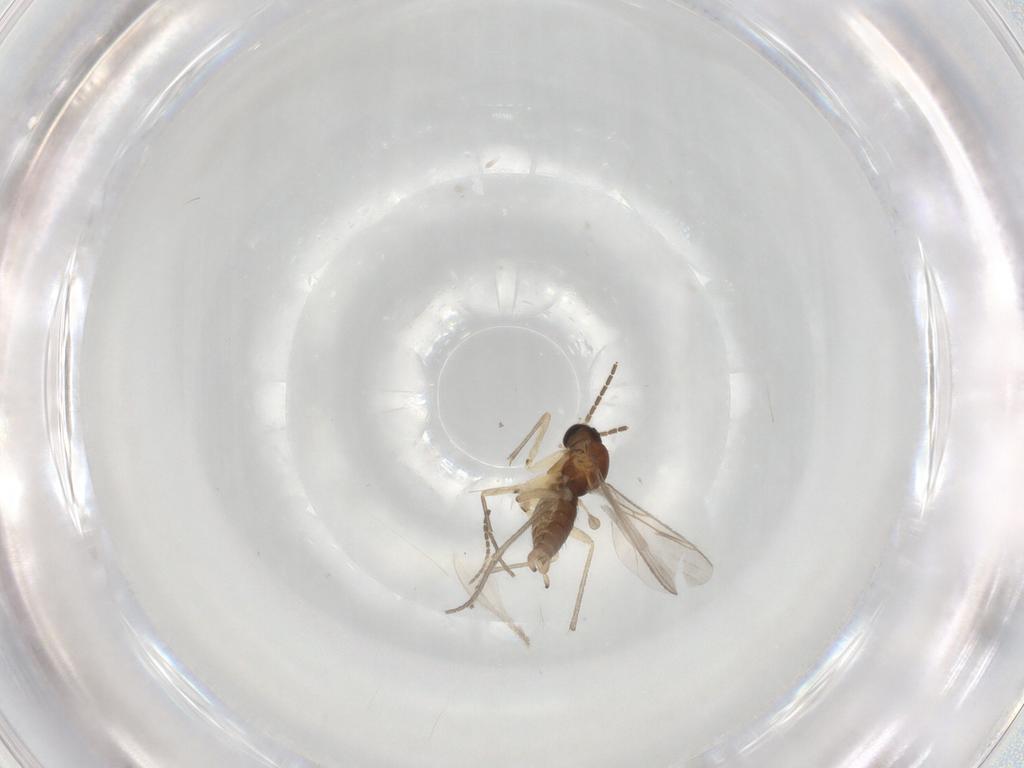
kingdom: Animalia
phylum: Arthropoda
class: Insecta
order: Diptera
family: Sciaridae
